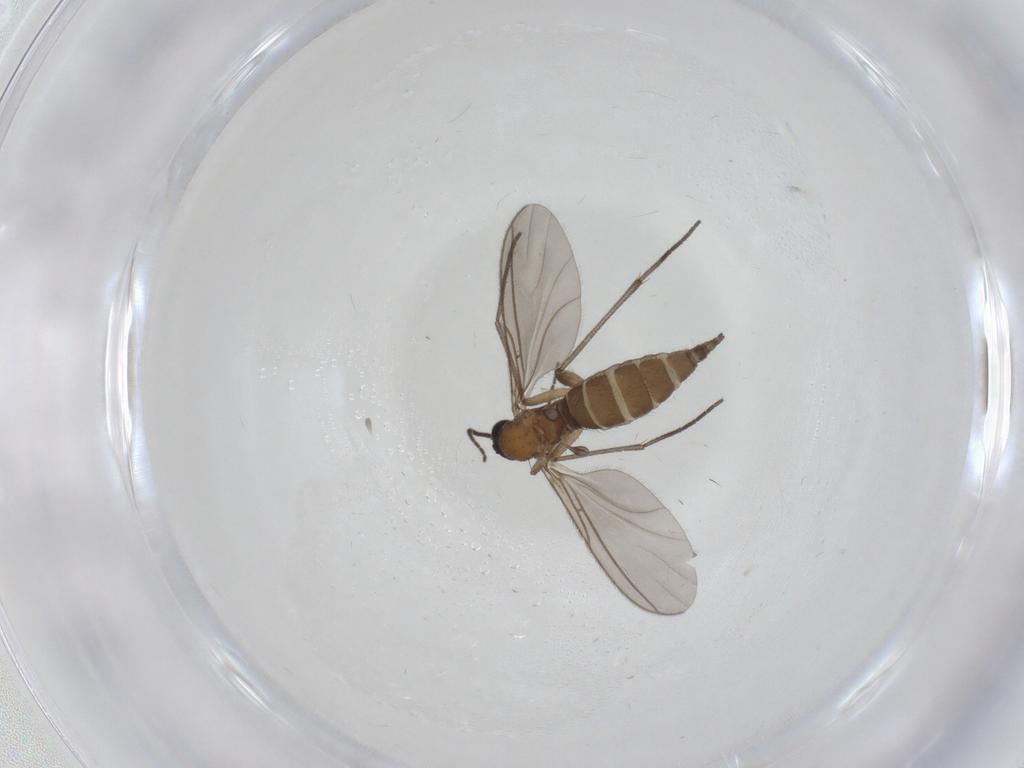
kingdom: Animalia
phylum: Arthropoda
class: Insecta
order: Diptera
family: Sciaridae
